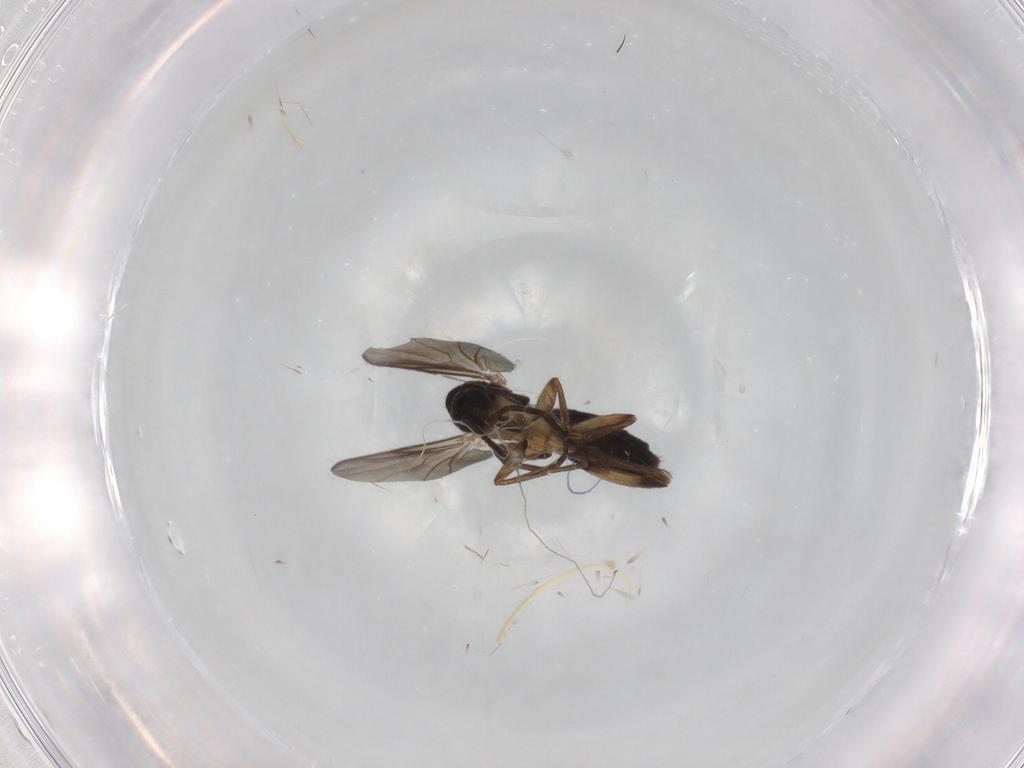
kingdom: Animalia
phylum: Arthropoda
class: Insecta
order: Diptera
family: Mycetophilidae
